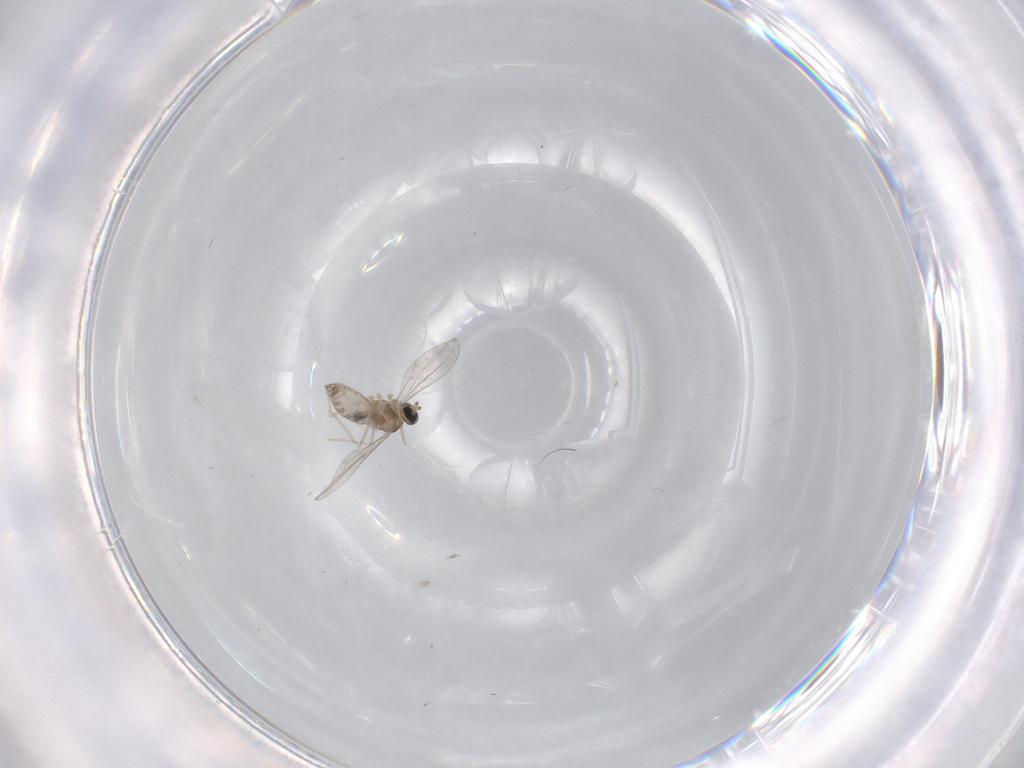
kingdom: Animalia
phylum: Arthropoda
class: Insecta
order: Diptera
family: Cecidomyiidae
